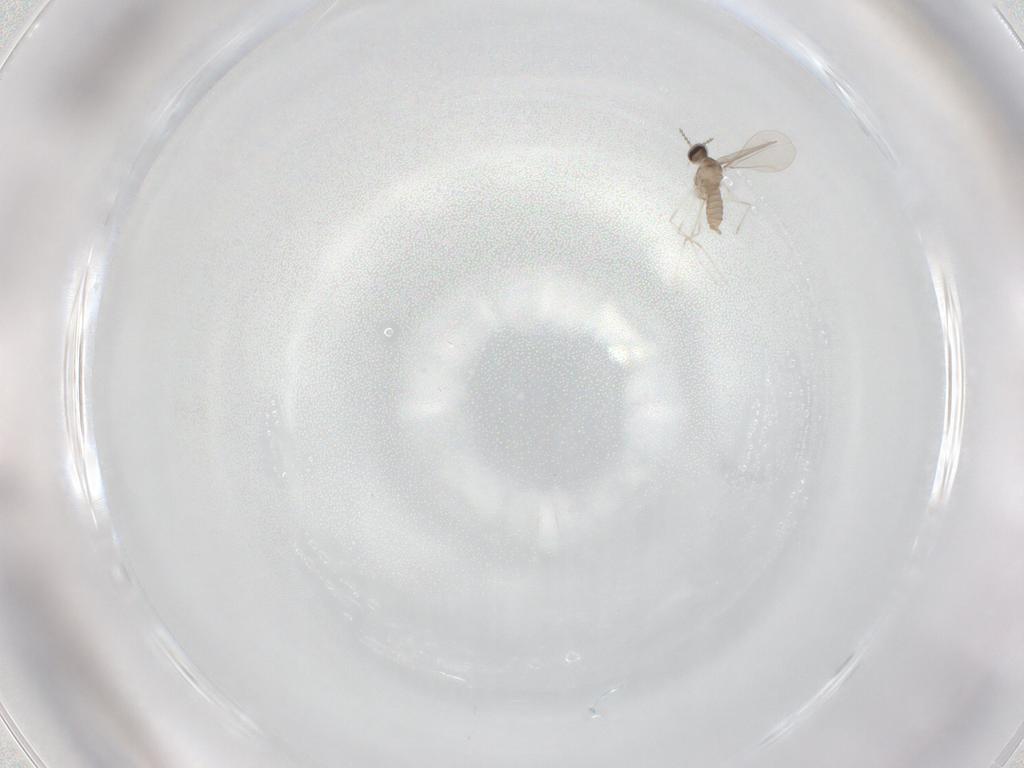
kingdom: Animalia
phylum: Arthropoda
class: Insecta
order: Diptera
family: Cecidomyiidae
